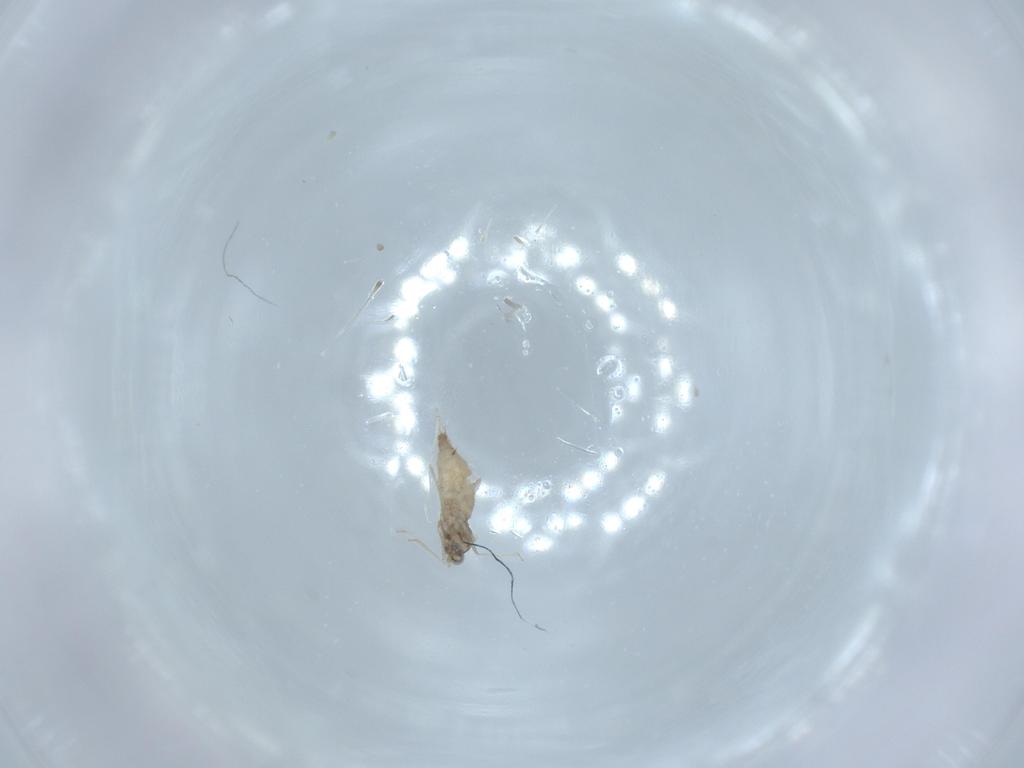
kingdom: Animalia
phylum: Arthropoda
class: Insecta
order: Diptera
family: Cecidomyiidae
